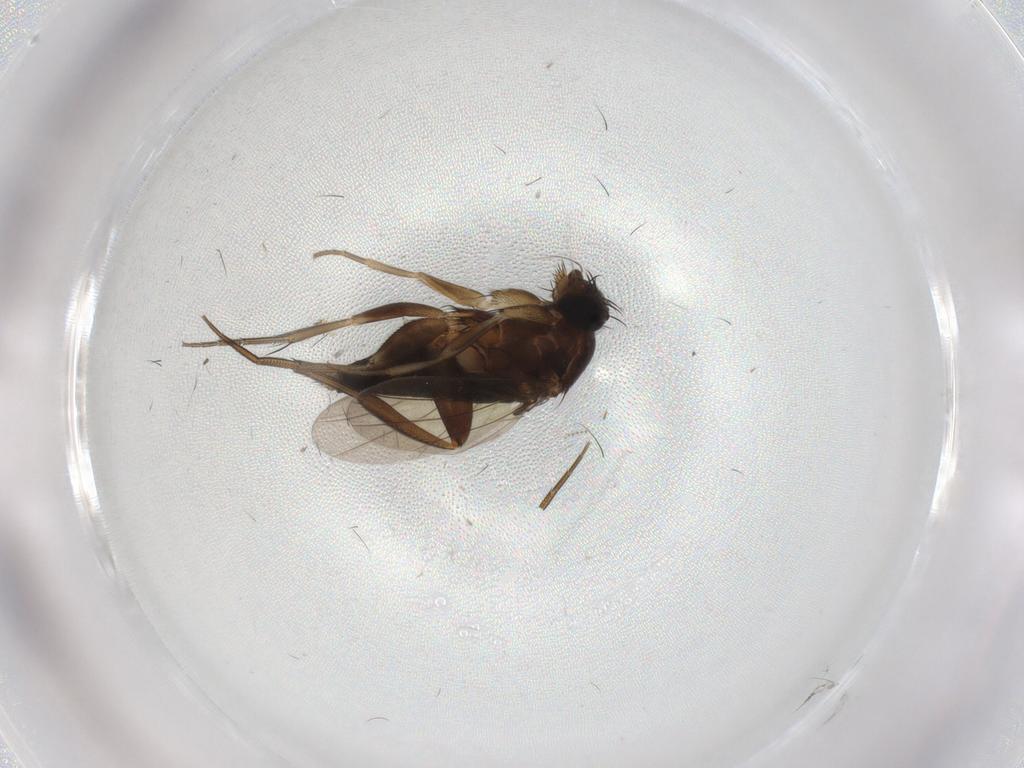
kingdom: Animalia
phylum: Arthropoda
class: Insecta
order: Diptera
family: Phoridae
